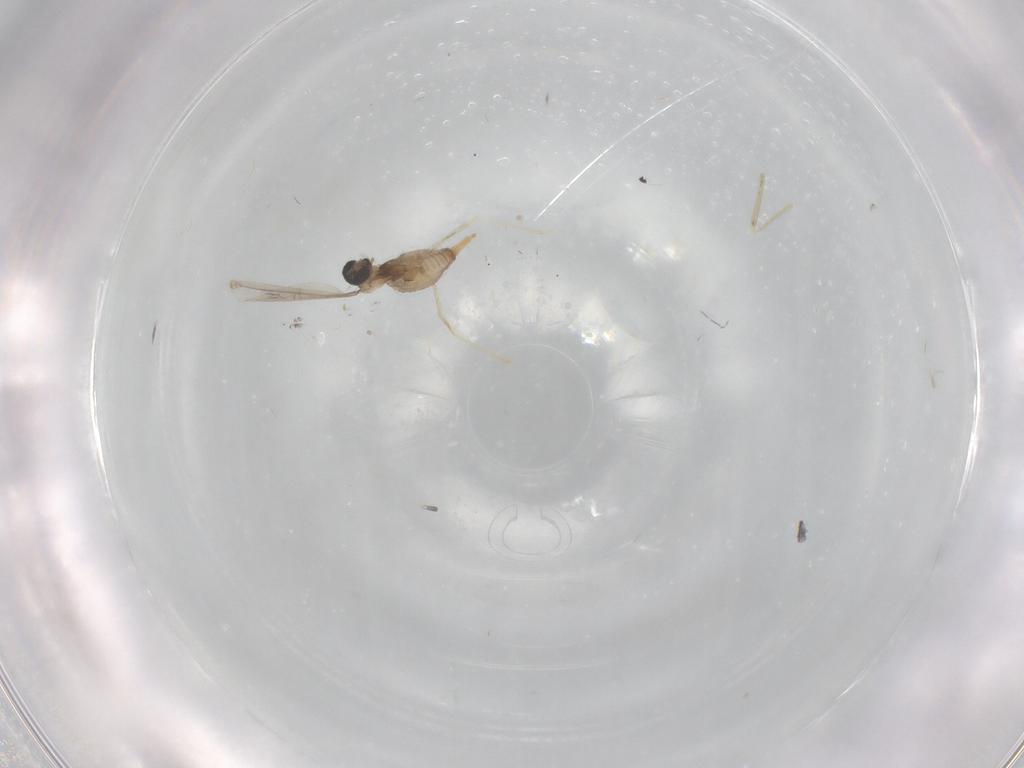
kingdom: Animalia
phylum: Arthropoda
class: Insecta
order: Diptera
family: Cecidomyiidae
